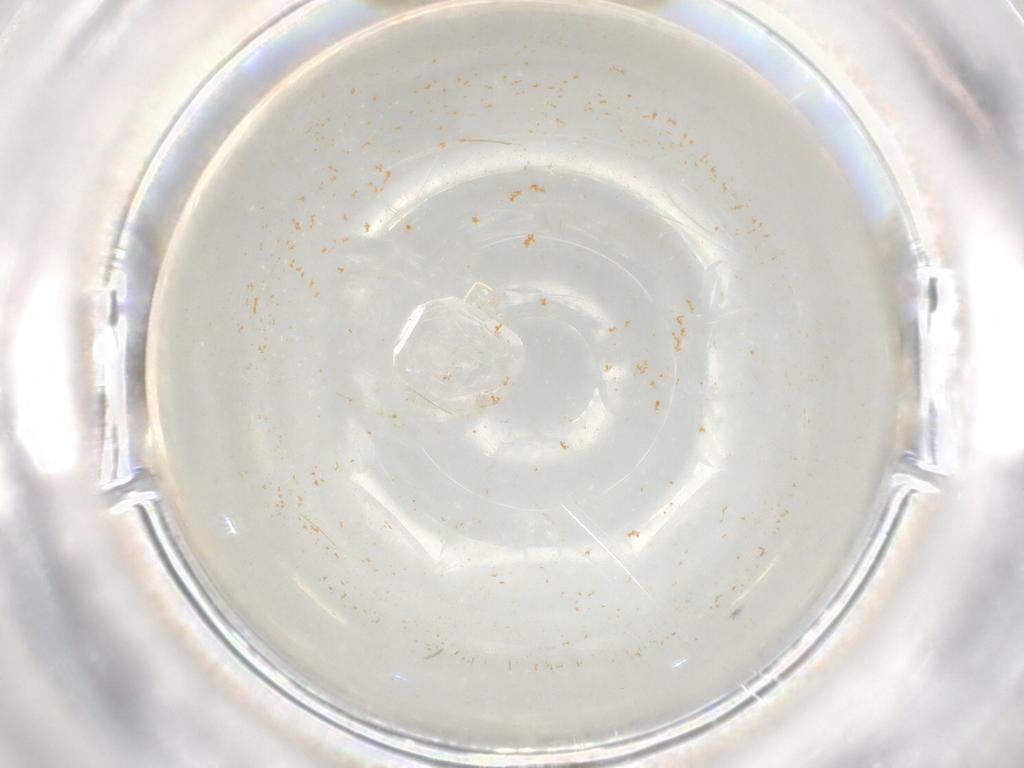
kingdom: Animalia
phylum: Arthropoda
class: Insecta
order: Hymenoptera
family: Mymaridae
